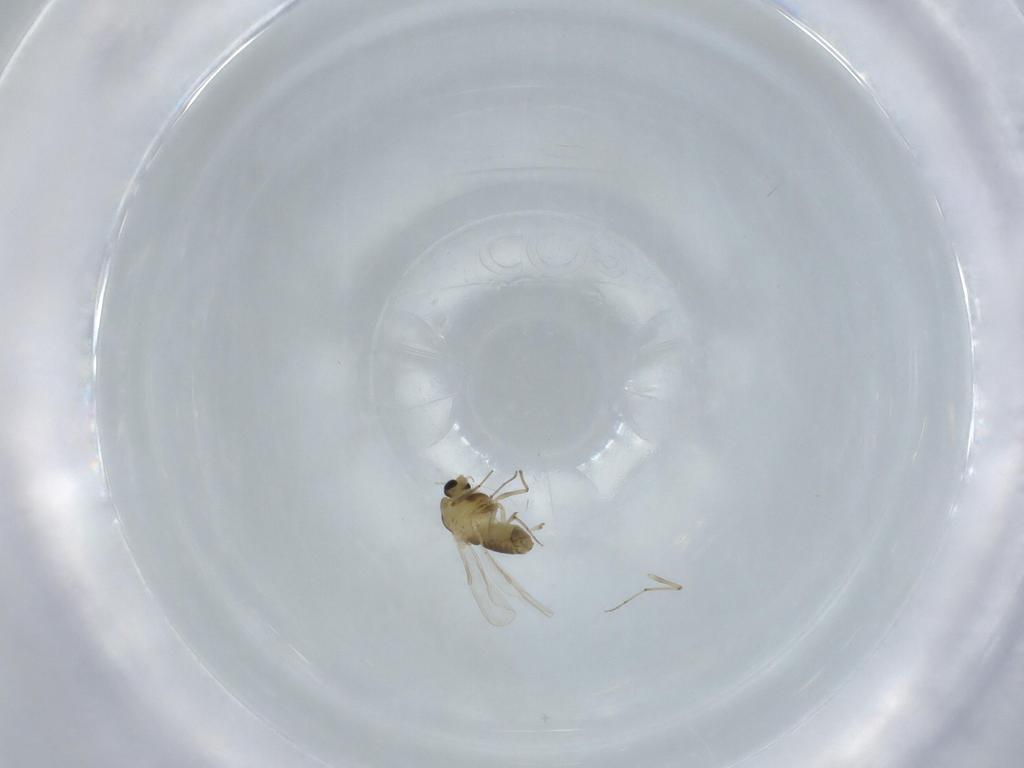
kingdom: Animalia
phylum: Arthropoda
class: Insecta
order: Diptera
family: Chironomidae
